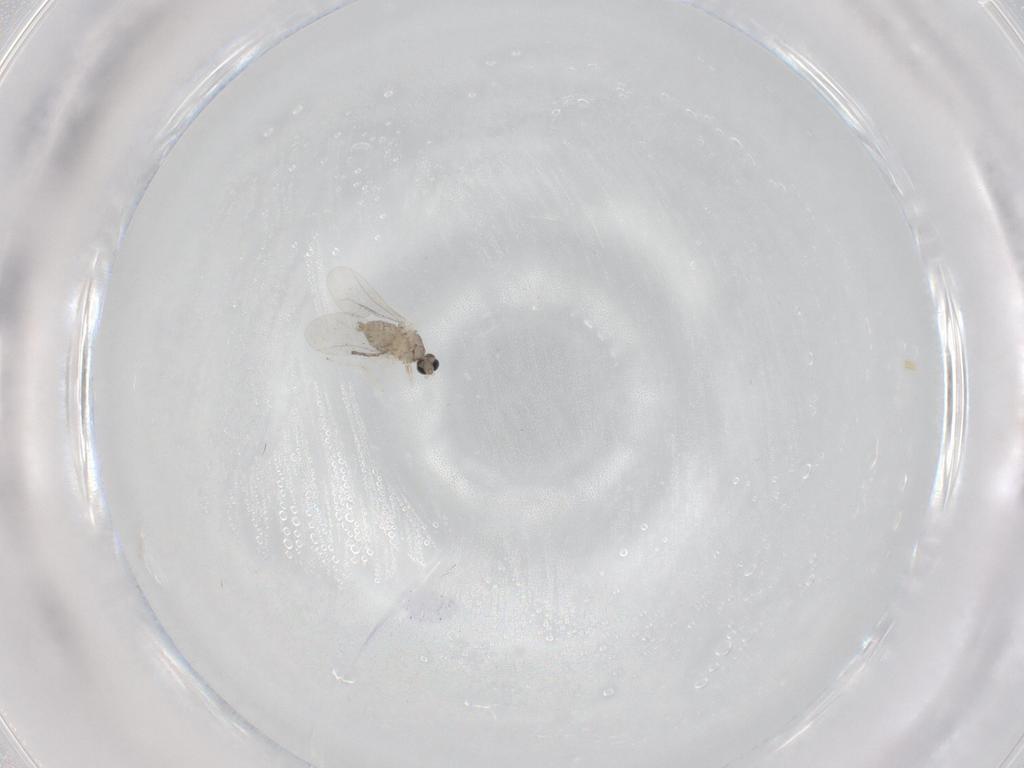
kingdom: Animalia
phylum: Arthropoda
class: Insecta
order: Diptera
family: Cecidomyiidae
